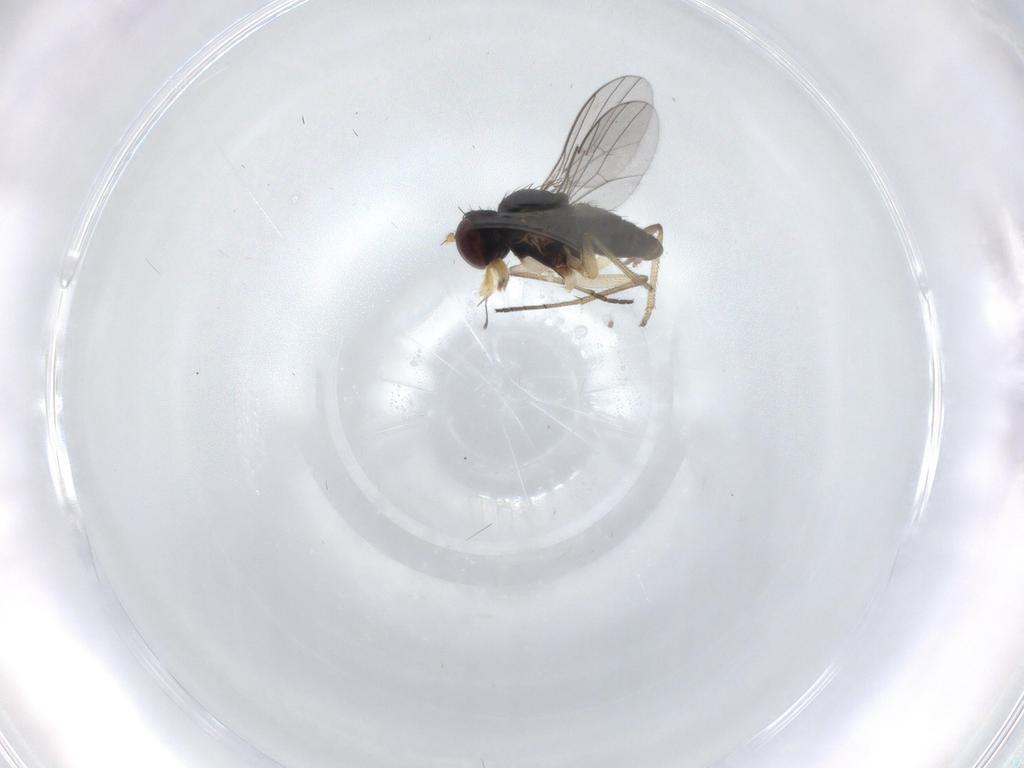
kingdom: Animalia
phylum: Arthropoda
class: Insecta
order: Diptera
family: Dolichopodidae
